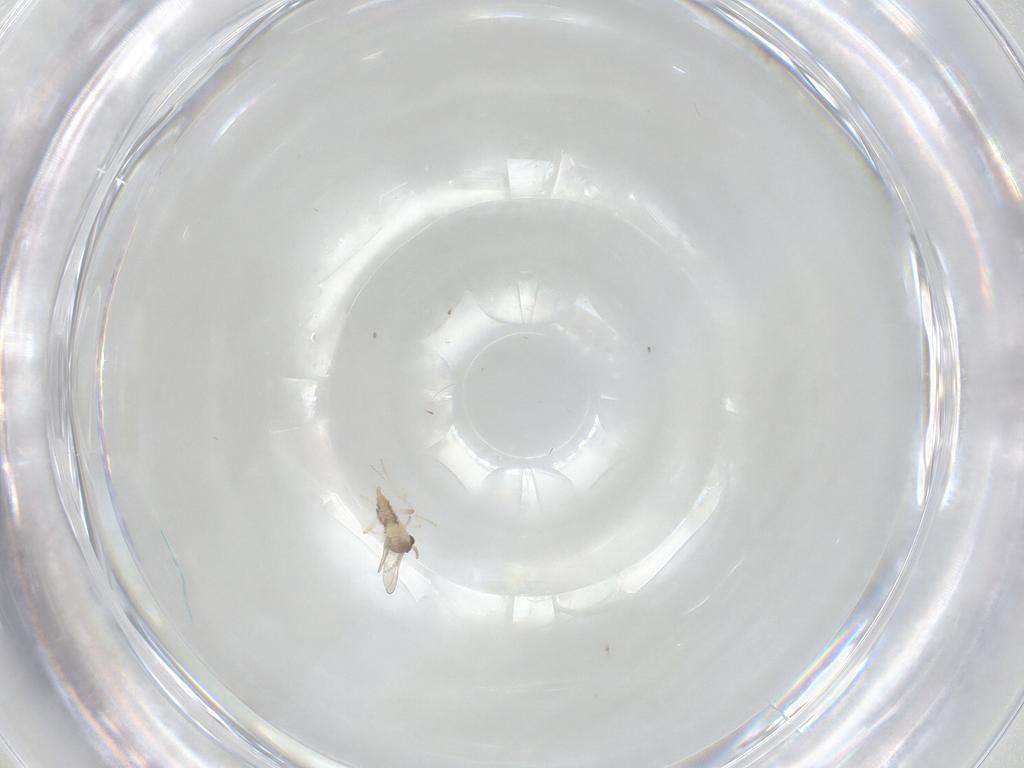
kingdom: Animalia
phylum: Arthropoda
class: Insecta
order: Diptera
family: Cecidomyiidae
